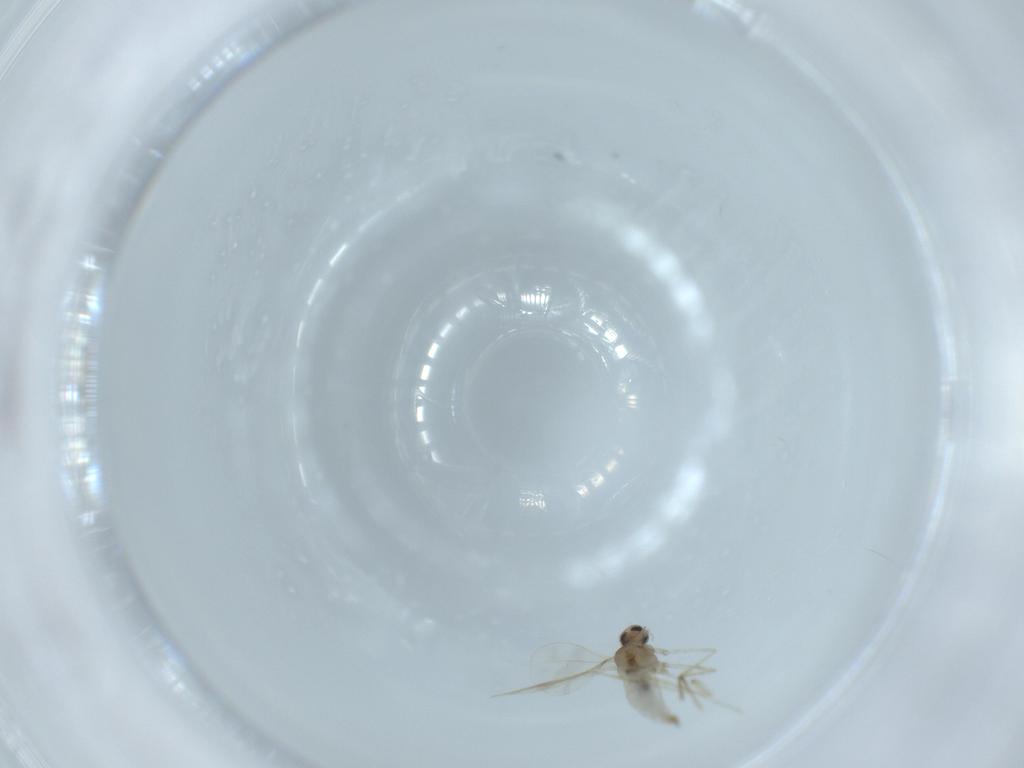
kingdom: Animalia
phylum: Arthropoda
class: Insecta
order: Diptera
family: Cecidomyiidae
